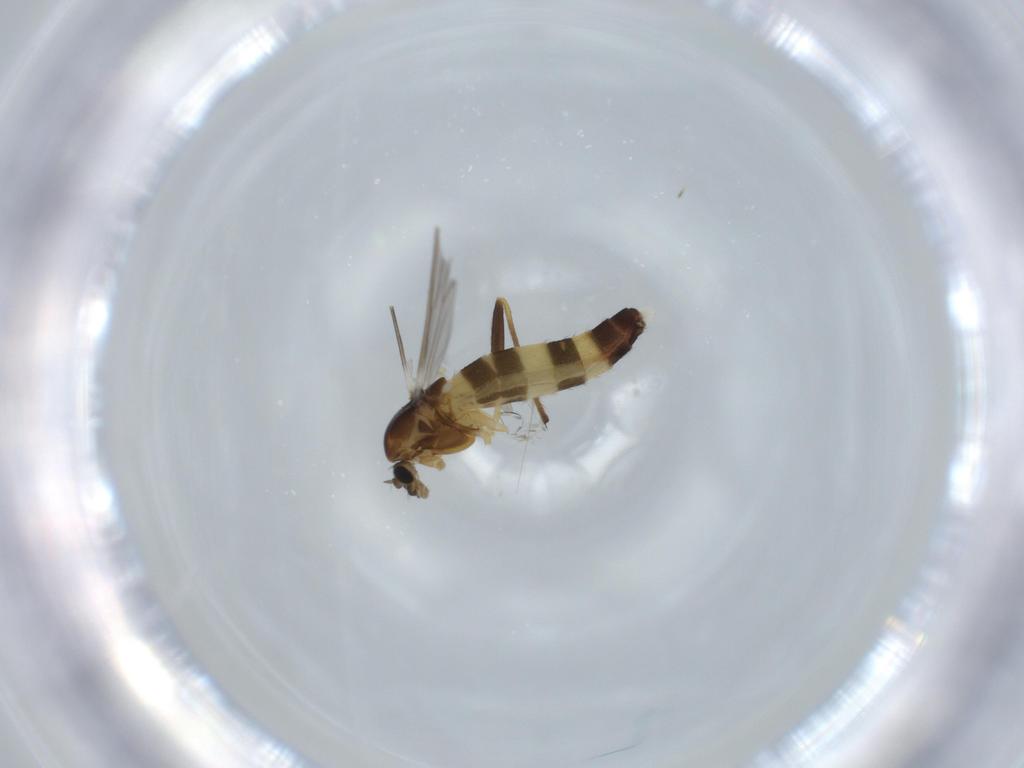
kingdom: Animalia
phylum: Arthropoda
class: Insecta
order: Diptera
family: Chironomidae
